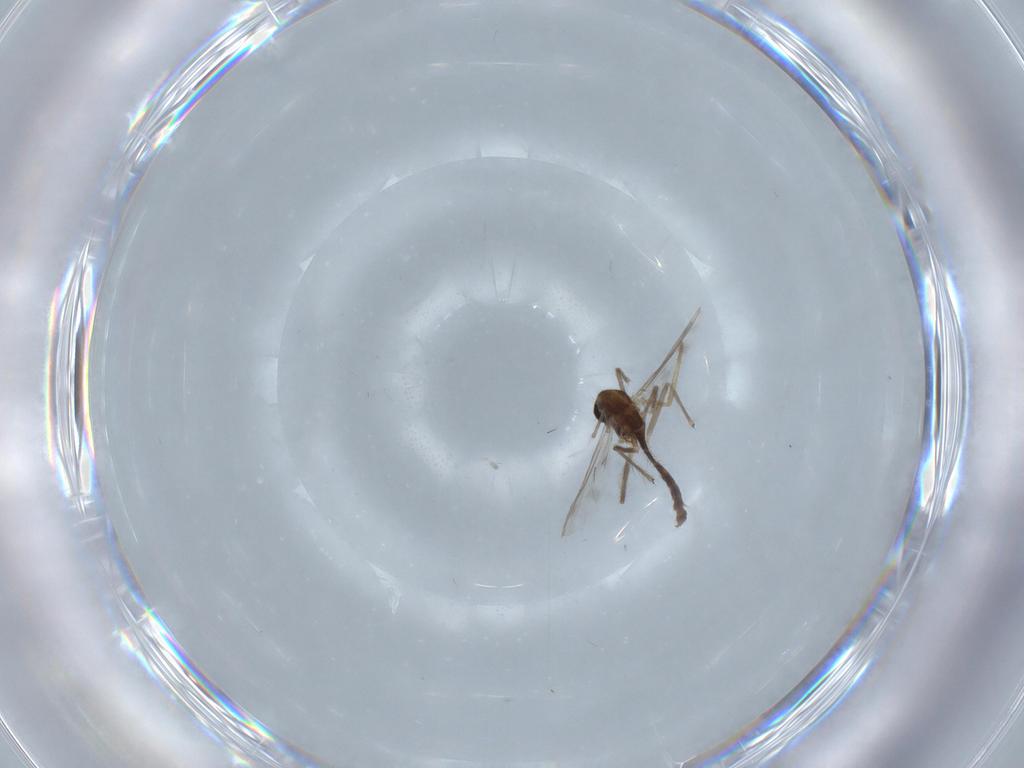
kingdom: Animalia
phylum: Arthropoda
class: Insecta
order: Diptera
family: Chironomidae
